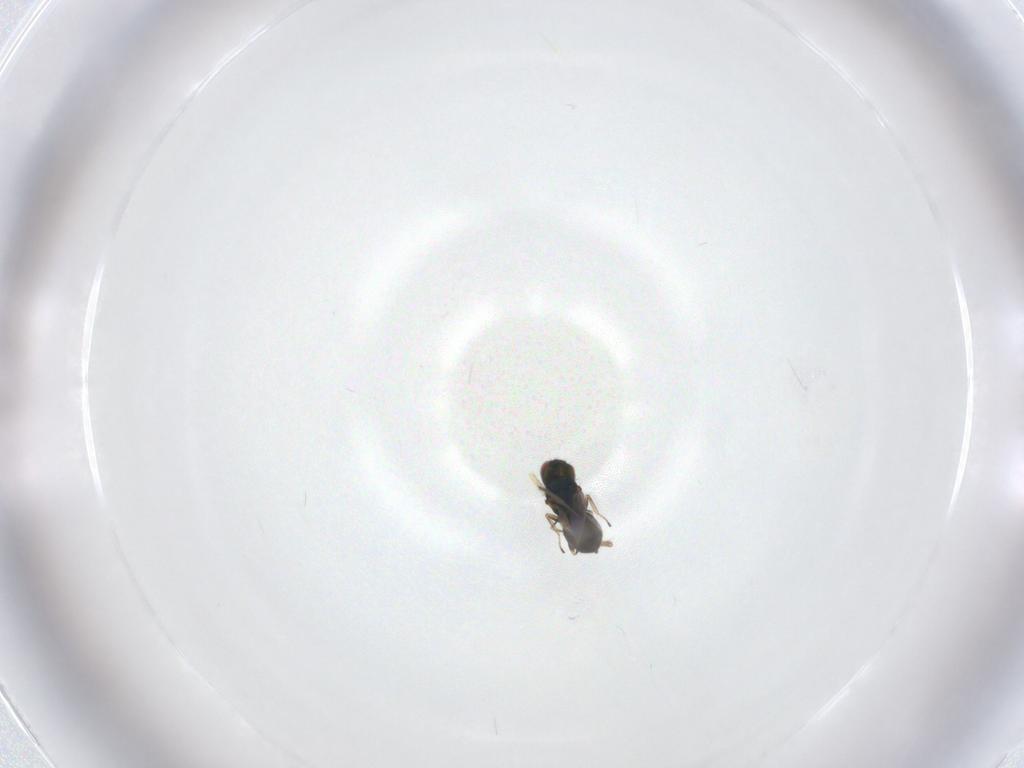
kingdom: Animalia
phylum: Arthropoda
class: Insecta
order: Hymenoptera
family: Eulophidae
